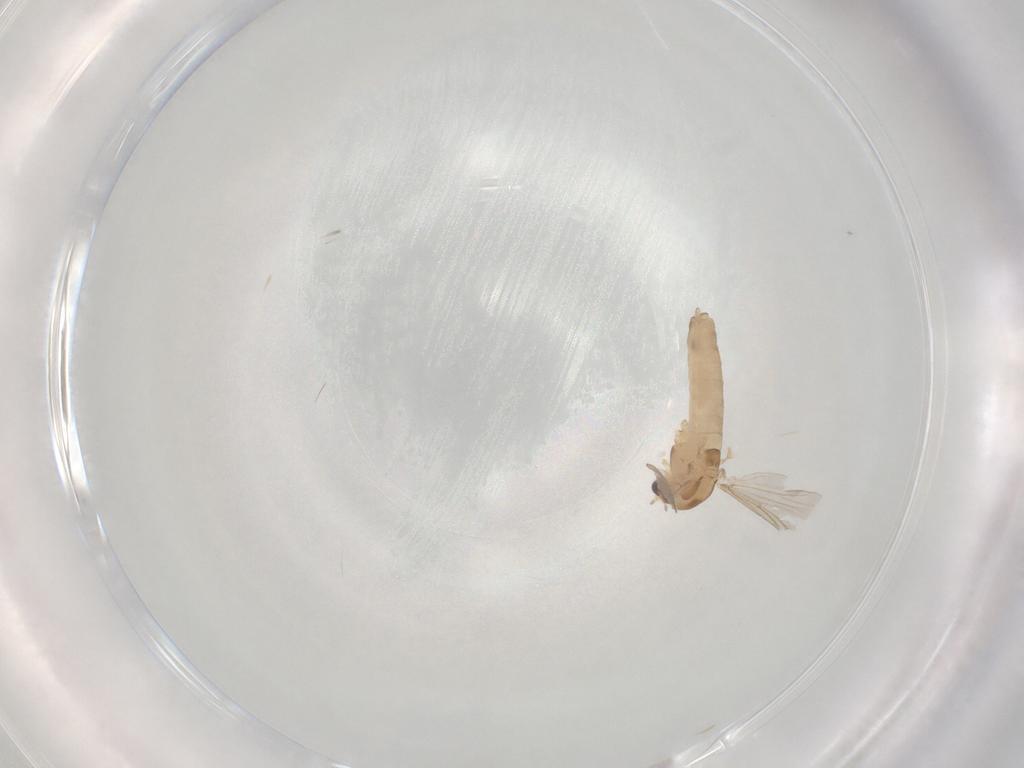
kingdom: Animalia
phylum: Arthropoda
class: Insecta
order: Diptera
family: Chironomidae
